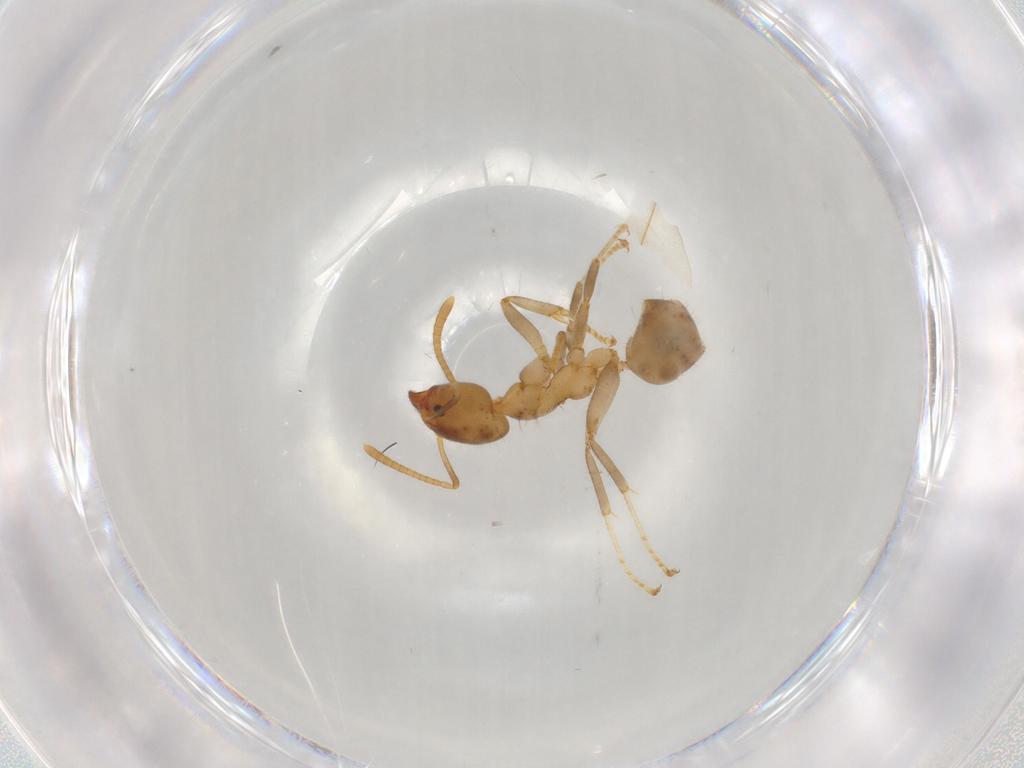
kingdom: Animalia
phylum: Arthropoda
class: Insecta
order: Hymenoptera
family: Formicidae
